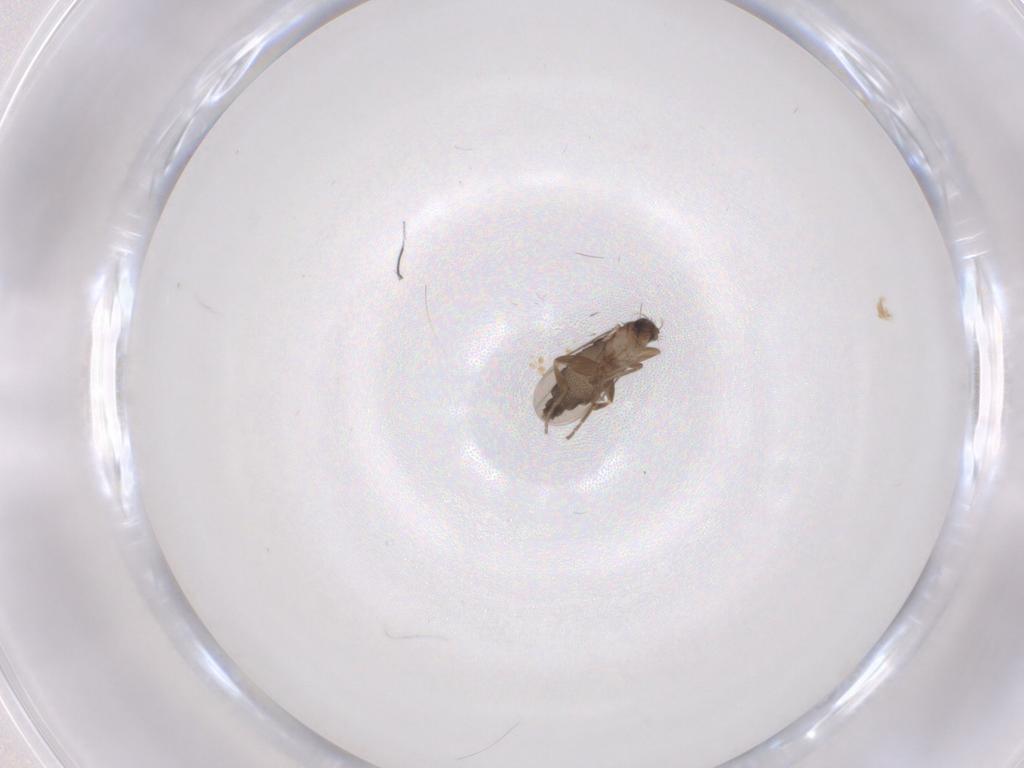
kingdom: Animalia
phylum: Arthropoda
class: Insecta
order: Diptera
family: Phoridae
